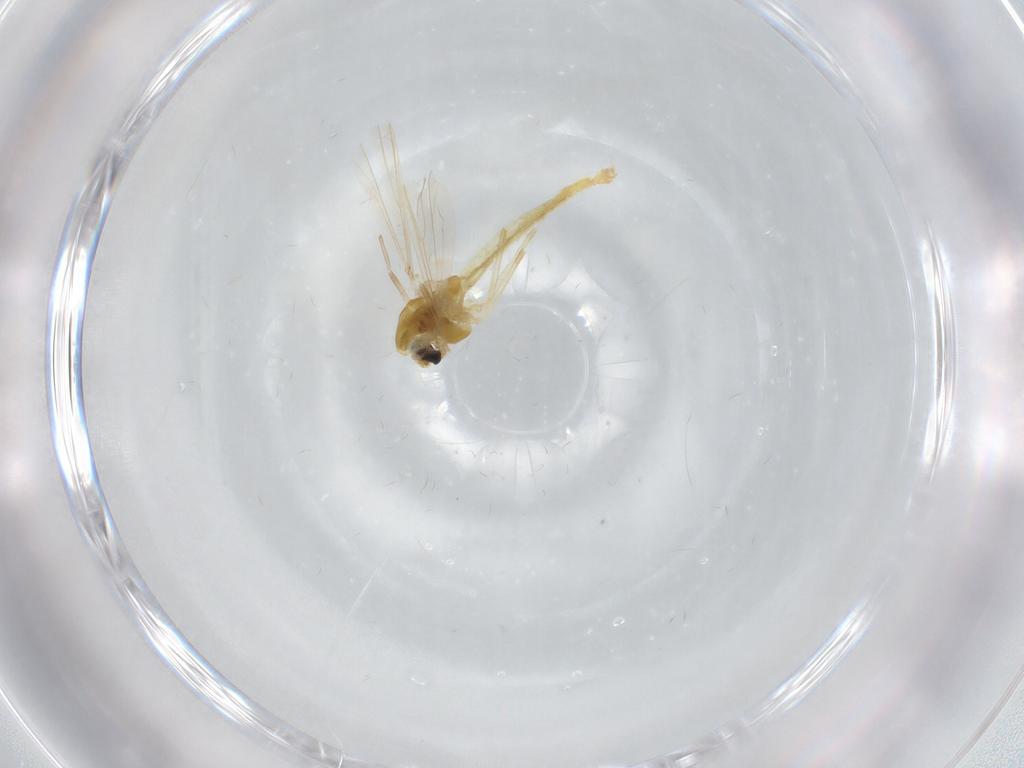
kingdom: Animalia
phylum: Arthropoda
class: Insecta
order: Diptera
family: Chironomidae
